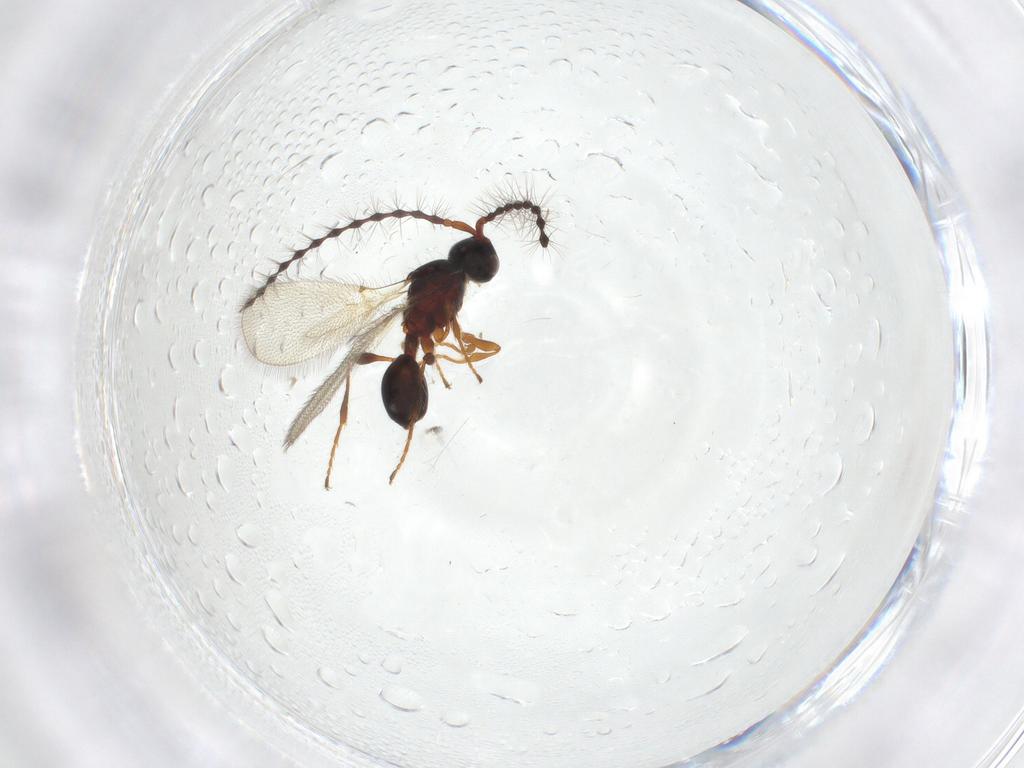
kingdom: Animalia
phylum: Arthropoda
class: Insecta
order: Hymenoptera
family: Diapriidae
